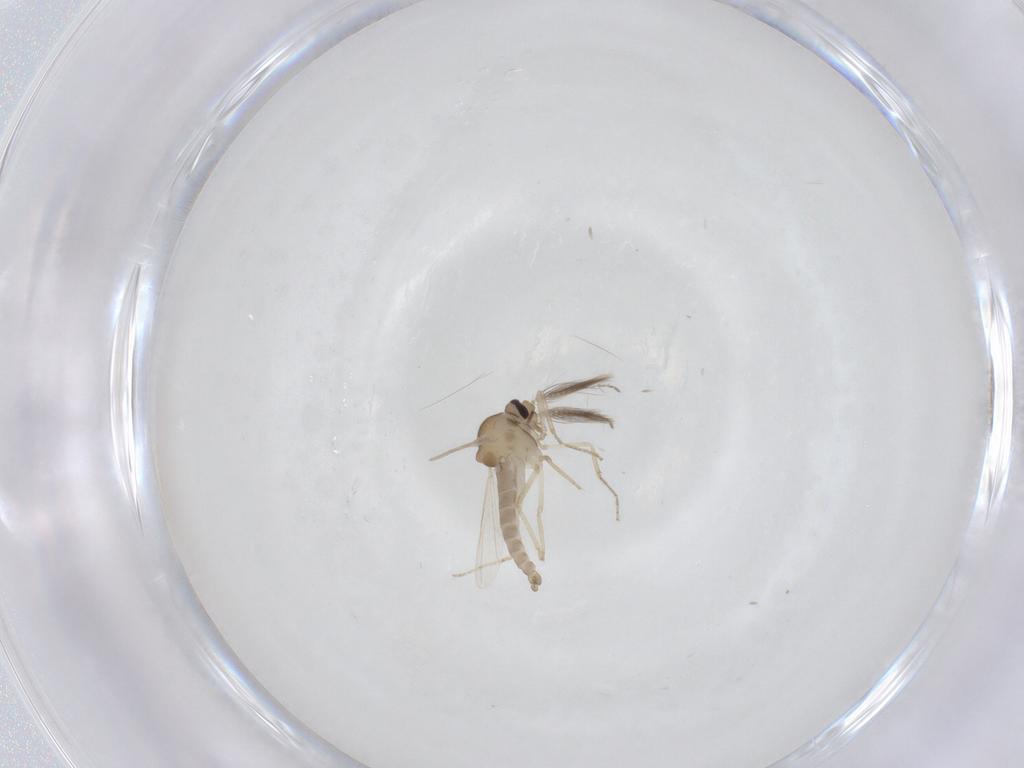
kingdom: Animalia
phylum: Arthropoda
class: Insecta
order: Diptera
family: Ceratopogonidae
